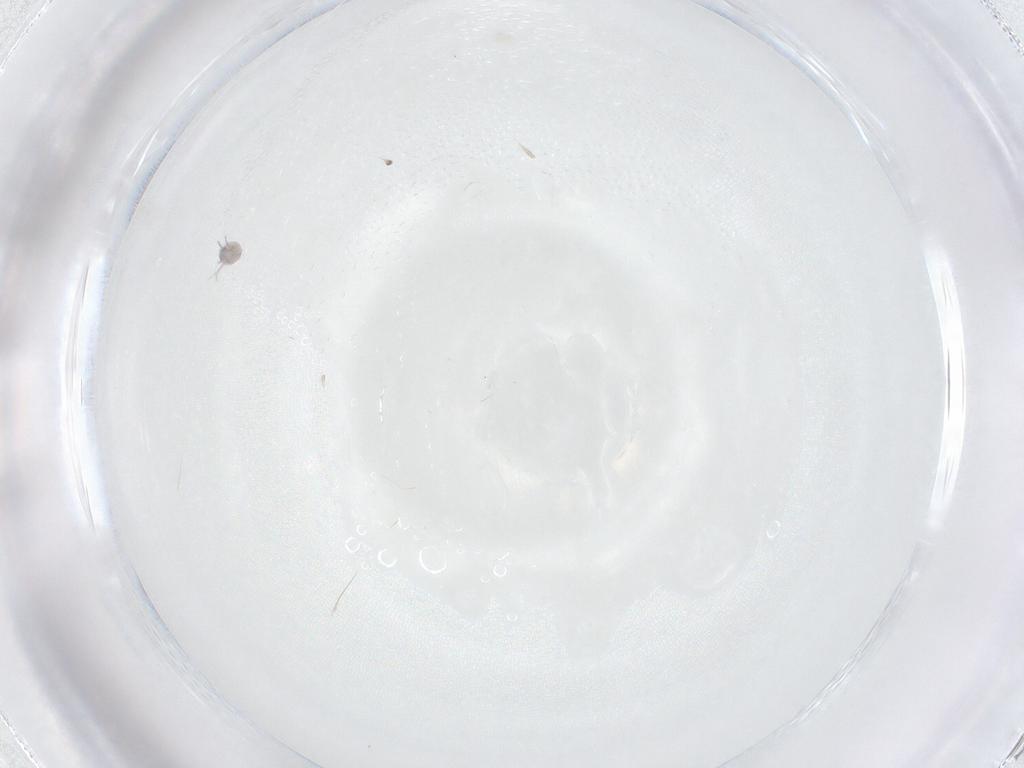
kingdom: Animalia
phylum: Arthropoda
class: Arachnida
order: Trombidiformes
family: Pionidae
